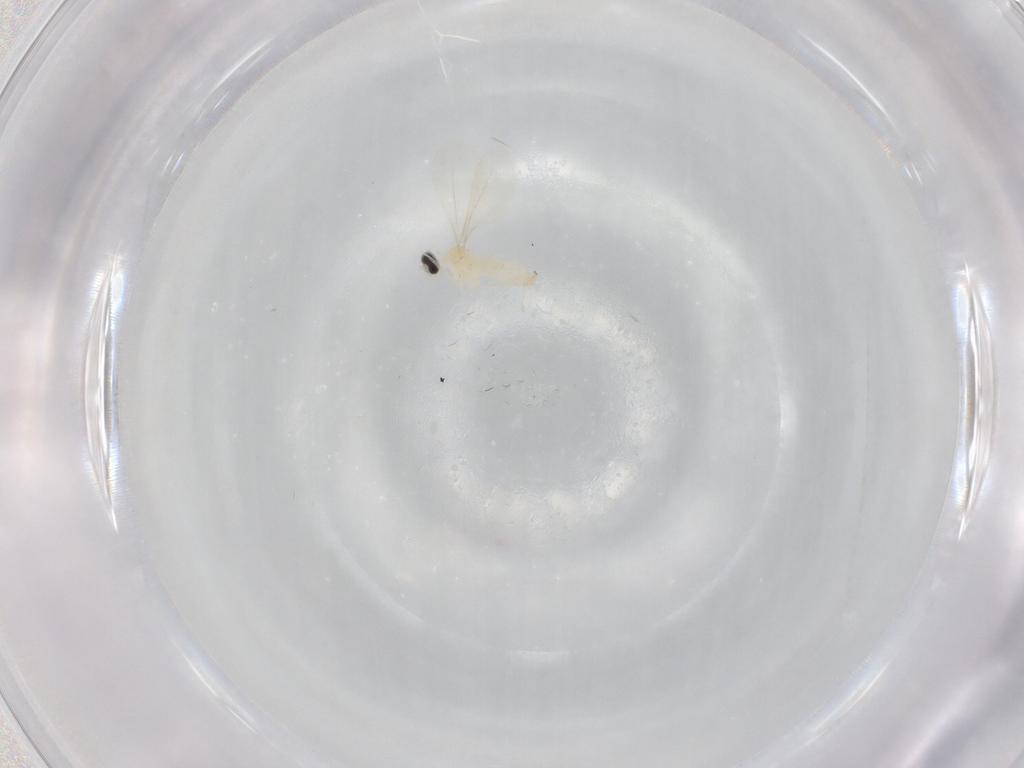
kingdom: Animalia
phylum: Arthropoda
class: Insecta
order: Diptera
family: Cecidomyiidae
